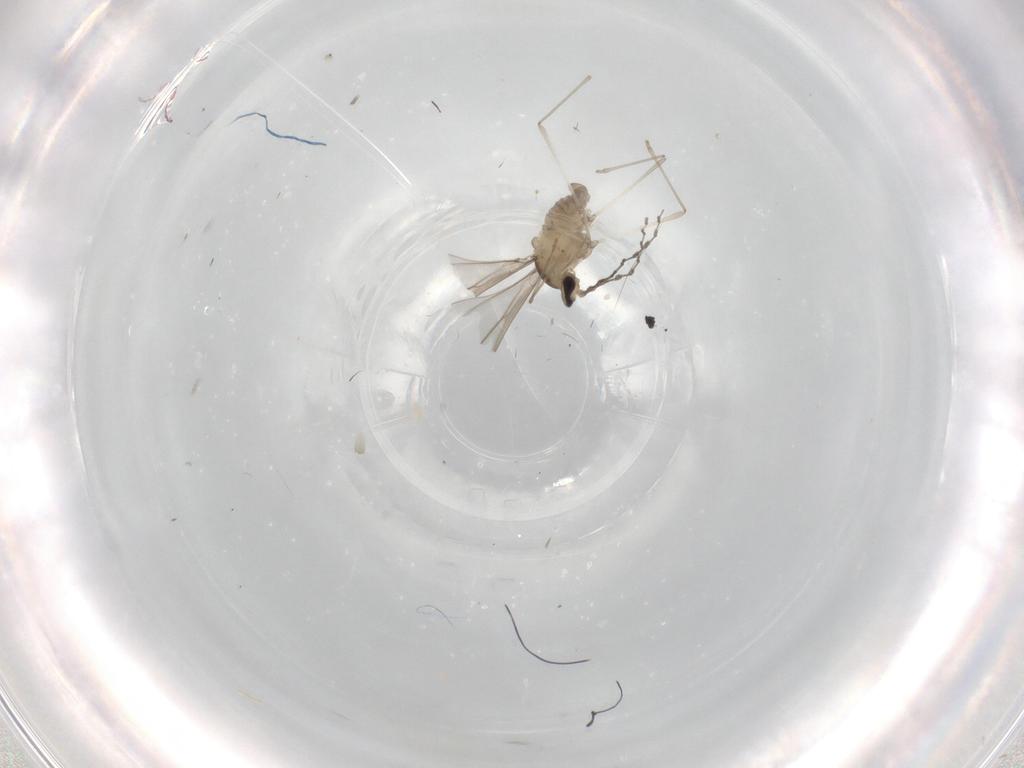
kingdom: Animalia
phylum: Arthropoda
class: Insecta
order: Diptera
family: Cecidomyiidae
